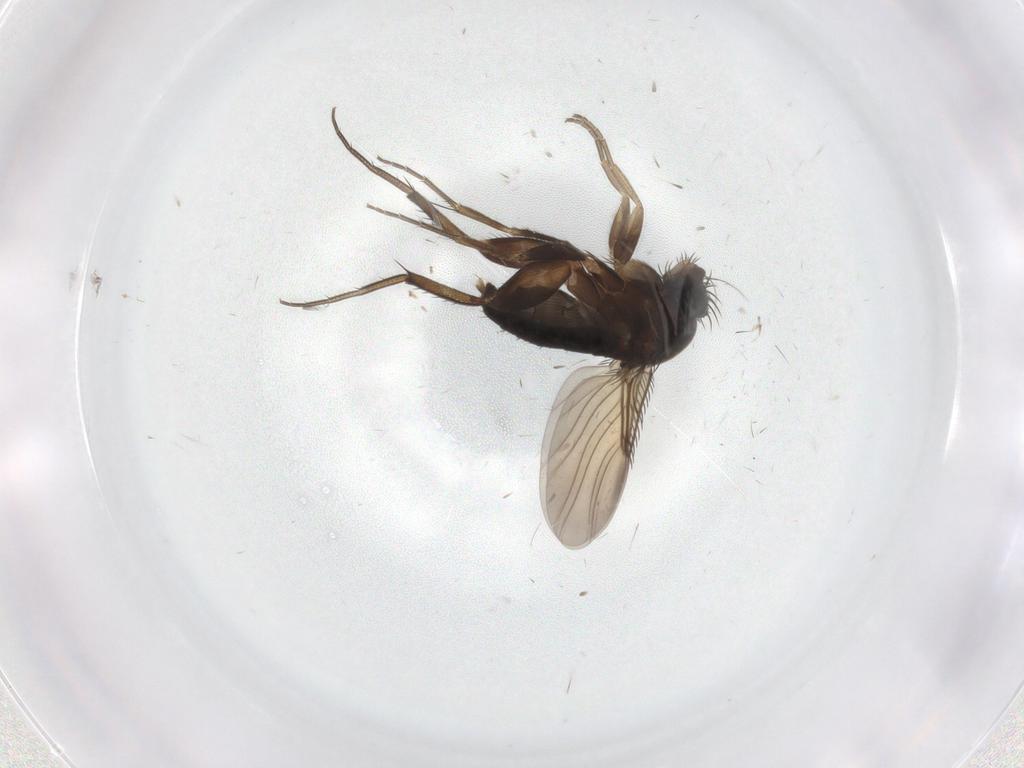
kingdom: Animalia
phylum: Arthropoda
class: Insecta
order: Diptera
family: Phoridae
